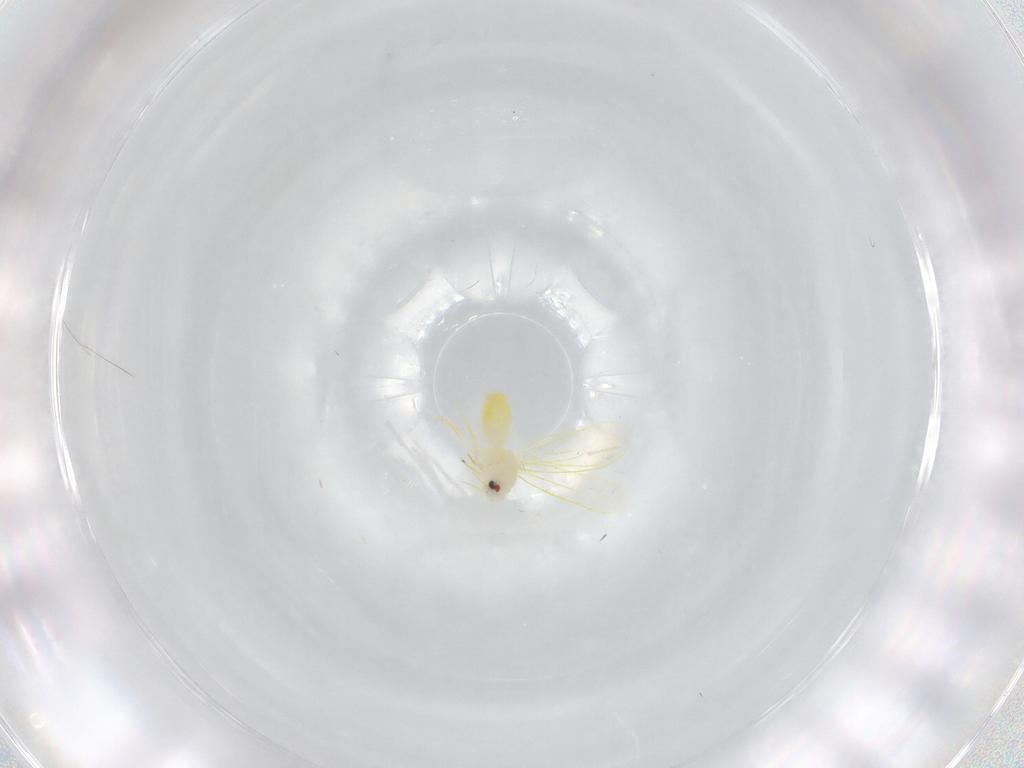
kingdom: Animalia
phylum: Arthropoda
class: Insecta
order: Hemiptera
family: Aleyrodidae
